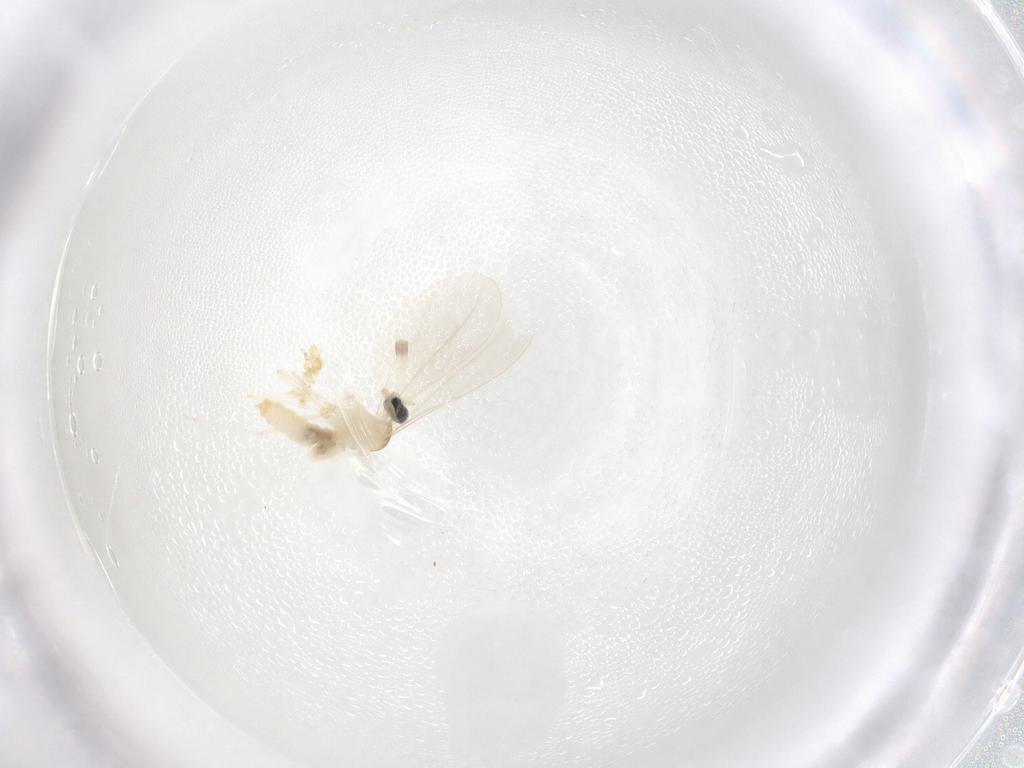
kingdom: Animalia
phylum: Arthropoda
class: Insecta
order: Diptera
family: Cecidomyiidae
